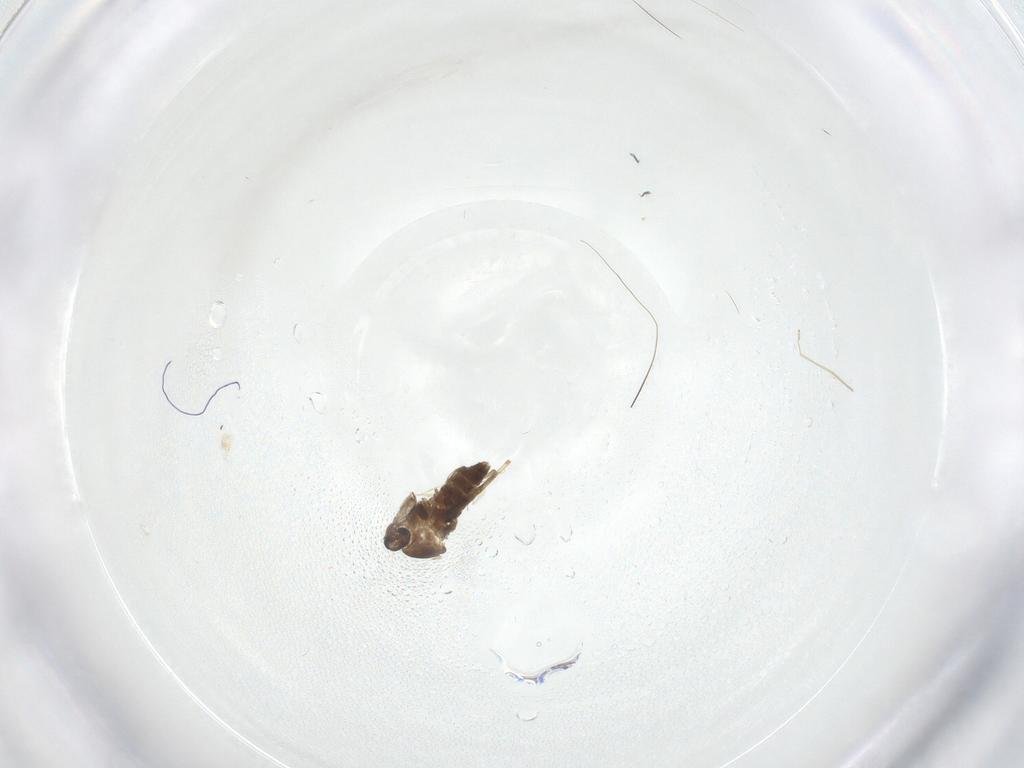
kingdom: Animalia
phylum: Arthropoda
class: Insecta
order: Diptera
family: Chironomidae
